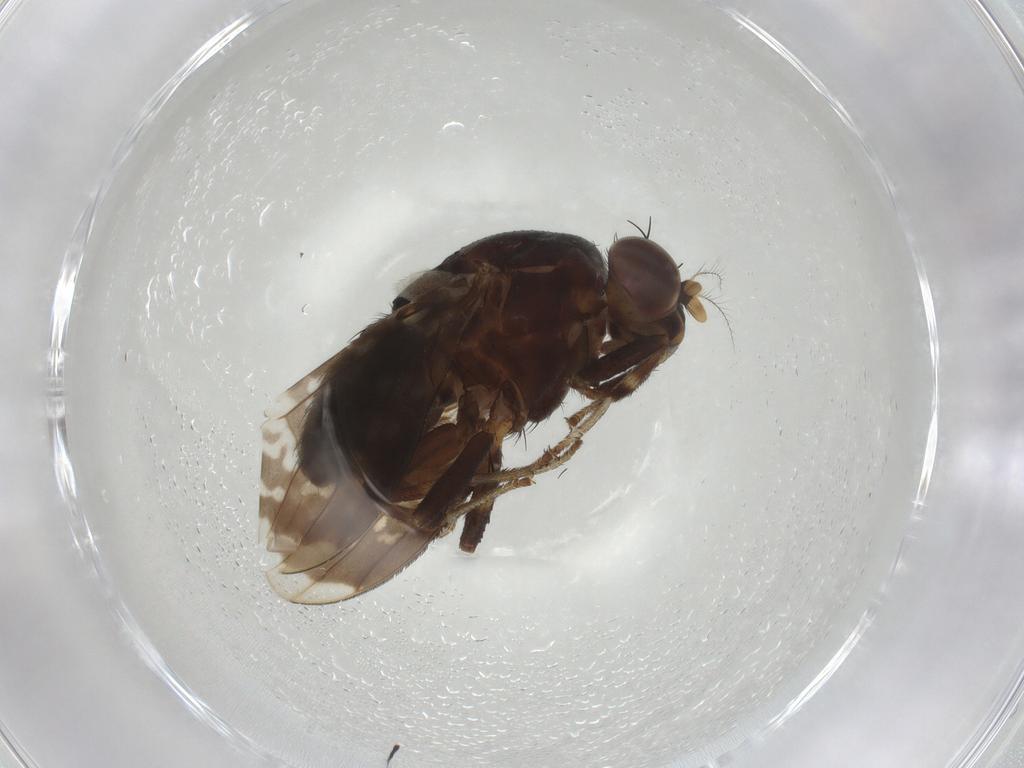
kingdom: Animalia
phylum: Arthropoda
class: Insecta
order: Diptera
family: Lauxaniidae
